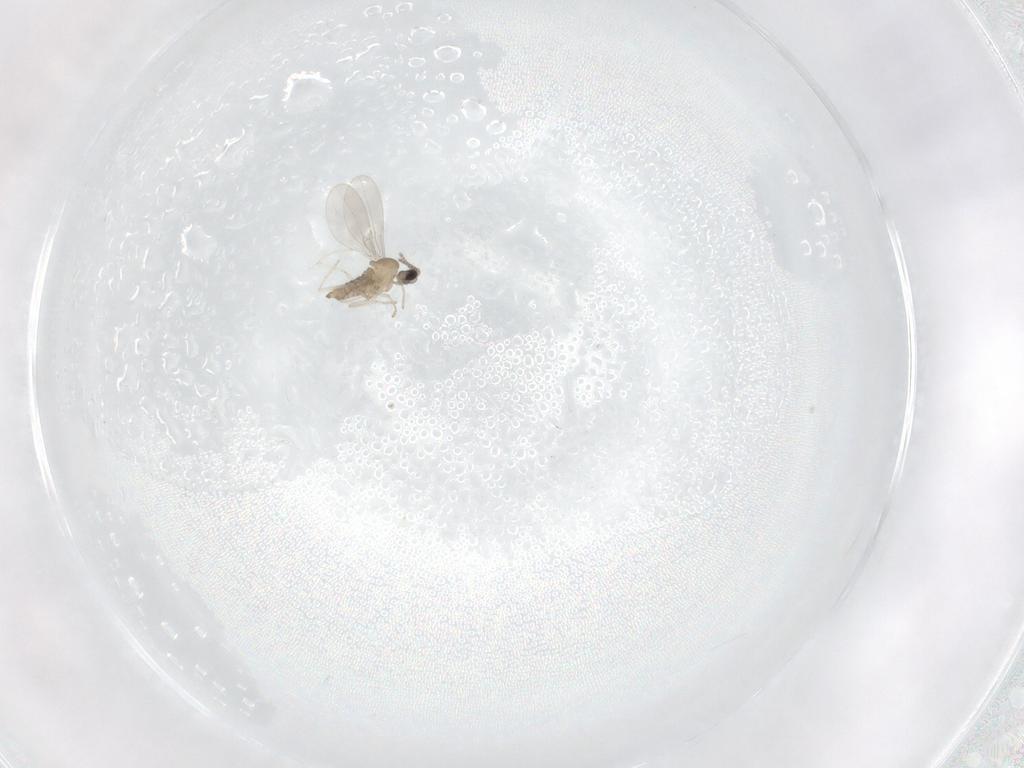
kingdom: Animalia
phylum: Arthropoda
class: Insecta
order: Diptera
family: Cecidomyiidae
